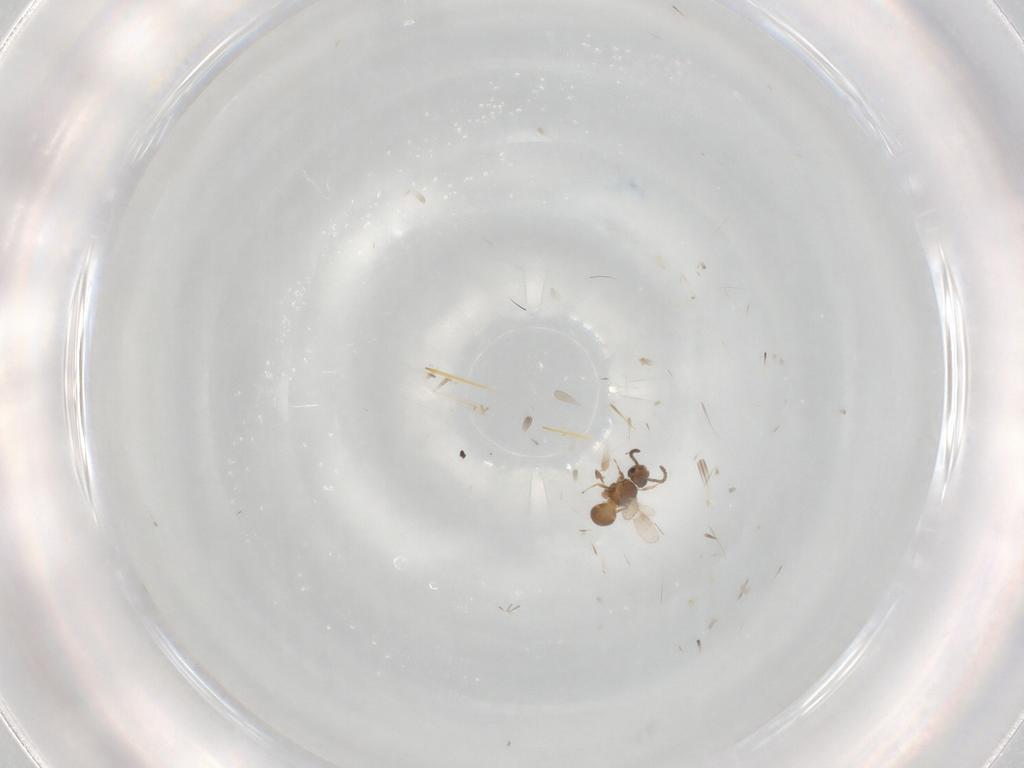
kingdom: Animalia
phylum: Arthropoda
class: Insecta
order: Hymenoptera
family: Scelionidae
